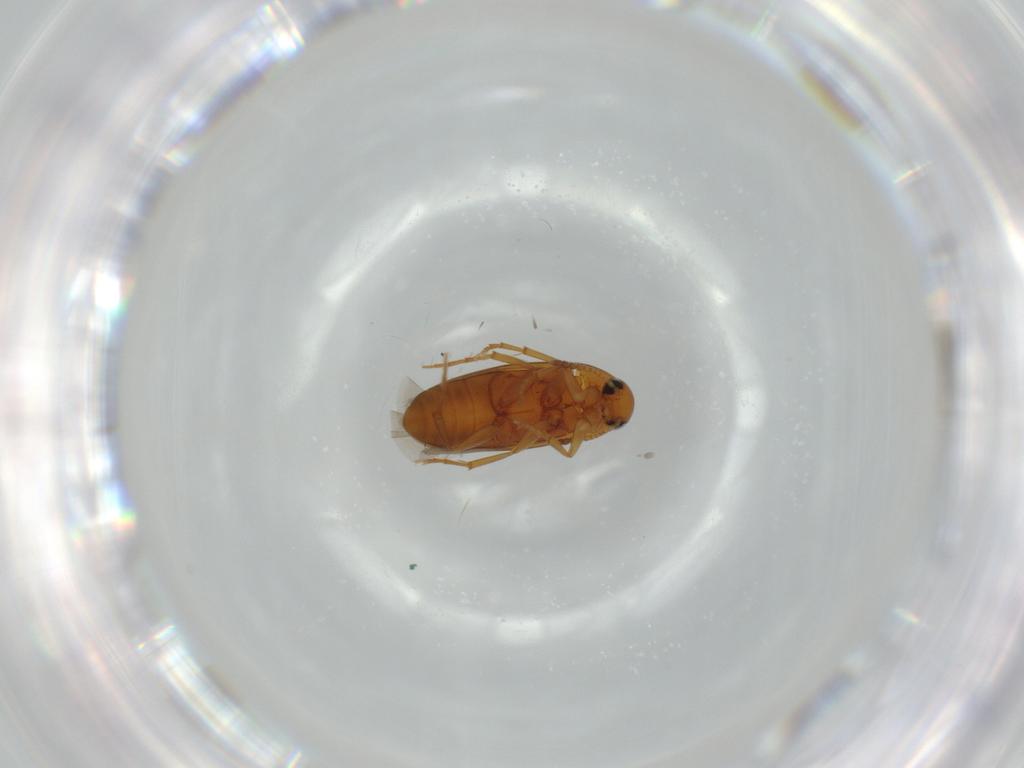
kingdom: Animalia
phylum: Arthropoda
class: Insecta
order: Coleoptera
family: Scraptiidae
